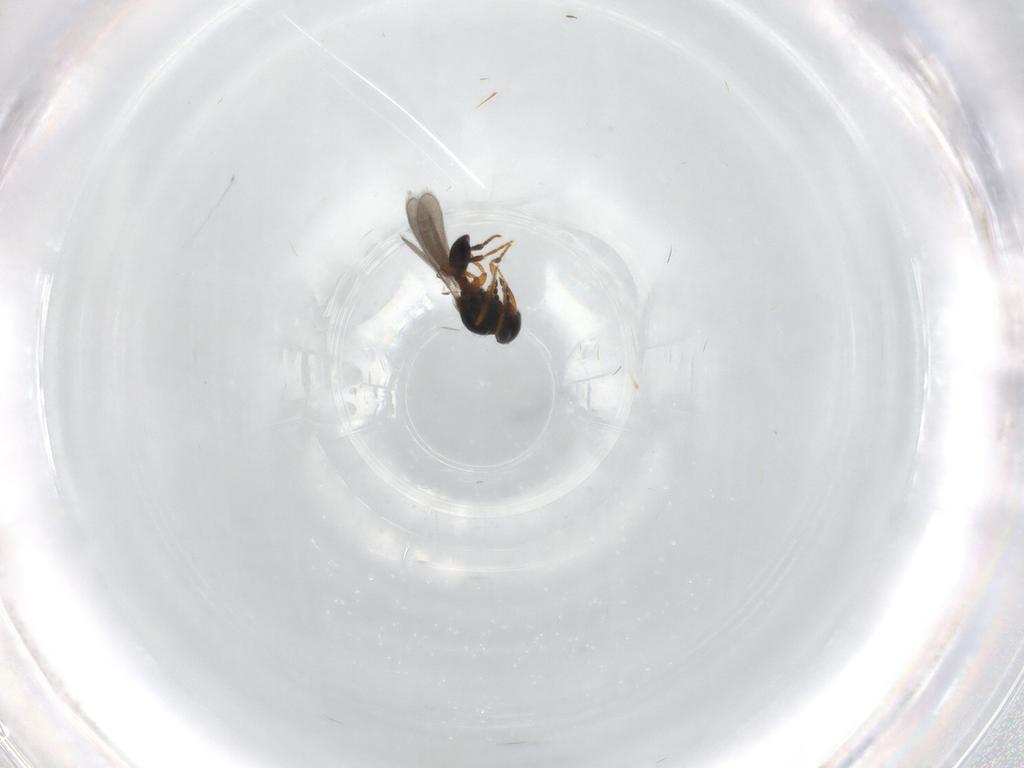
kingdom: Animalia
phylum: Arthropoda
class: Insecta
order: Hymenoptera
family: Platygastridae
